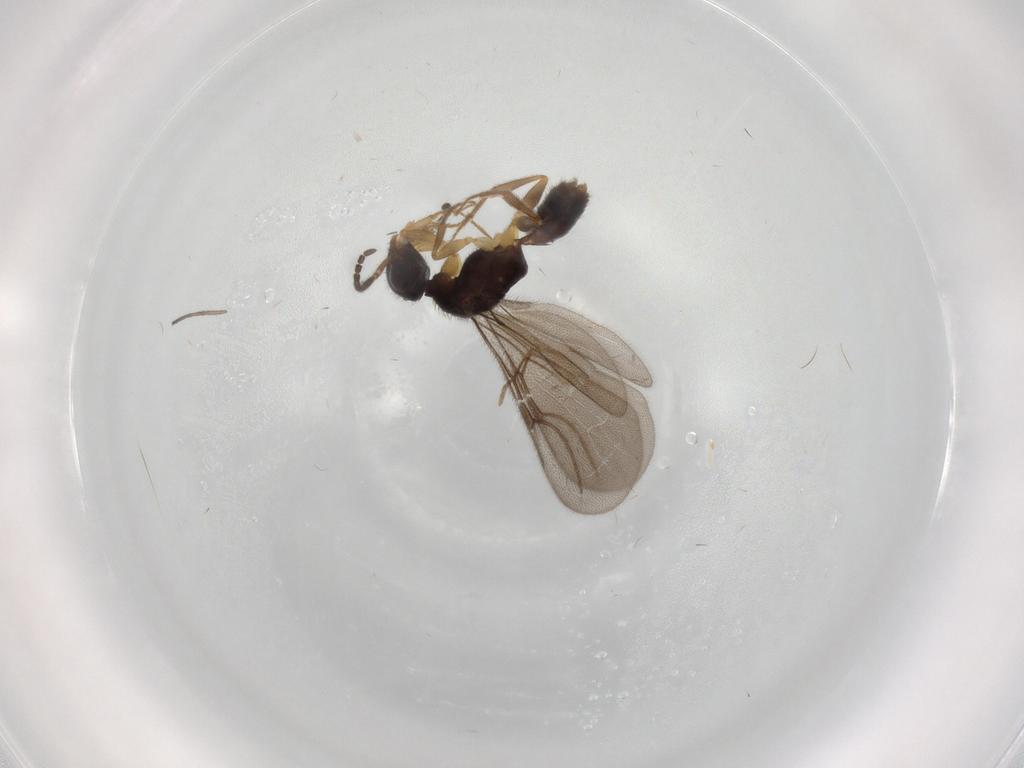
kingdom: Animalia
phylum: Arthropoda
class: Insecta
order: Hymenoptera
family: Bethylidae
